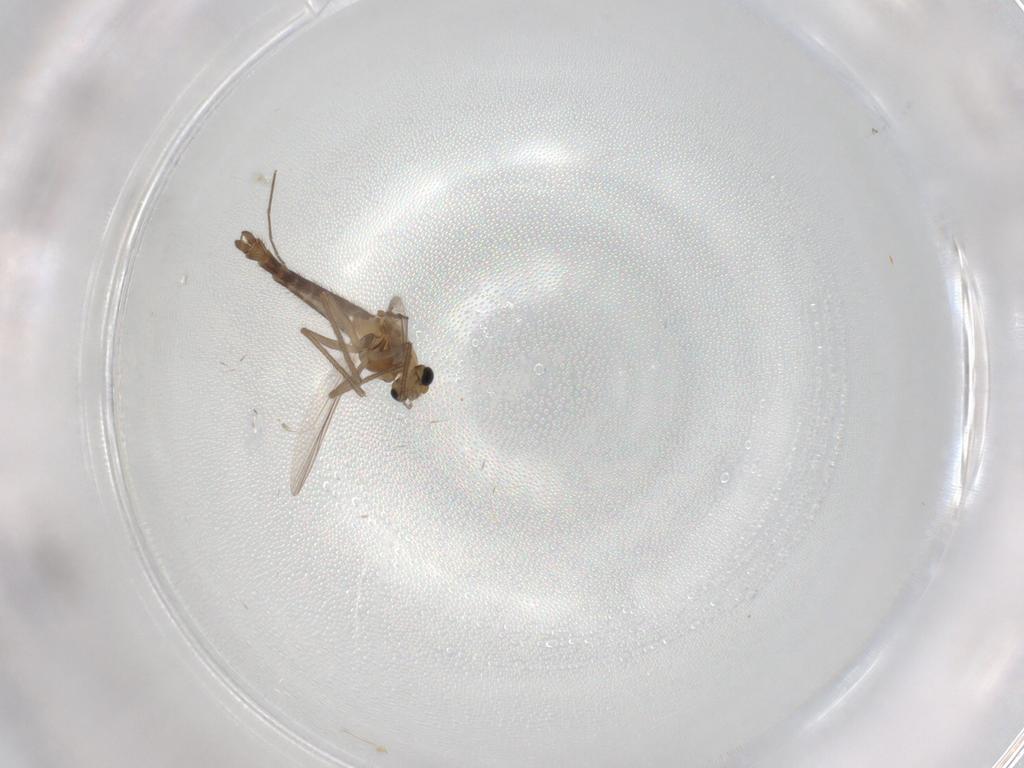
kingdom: Animalia
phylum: Arthropoda
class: Insecta
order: Diptera
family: Chironomidae
